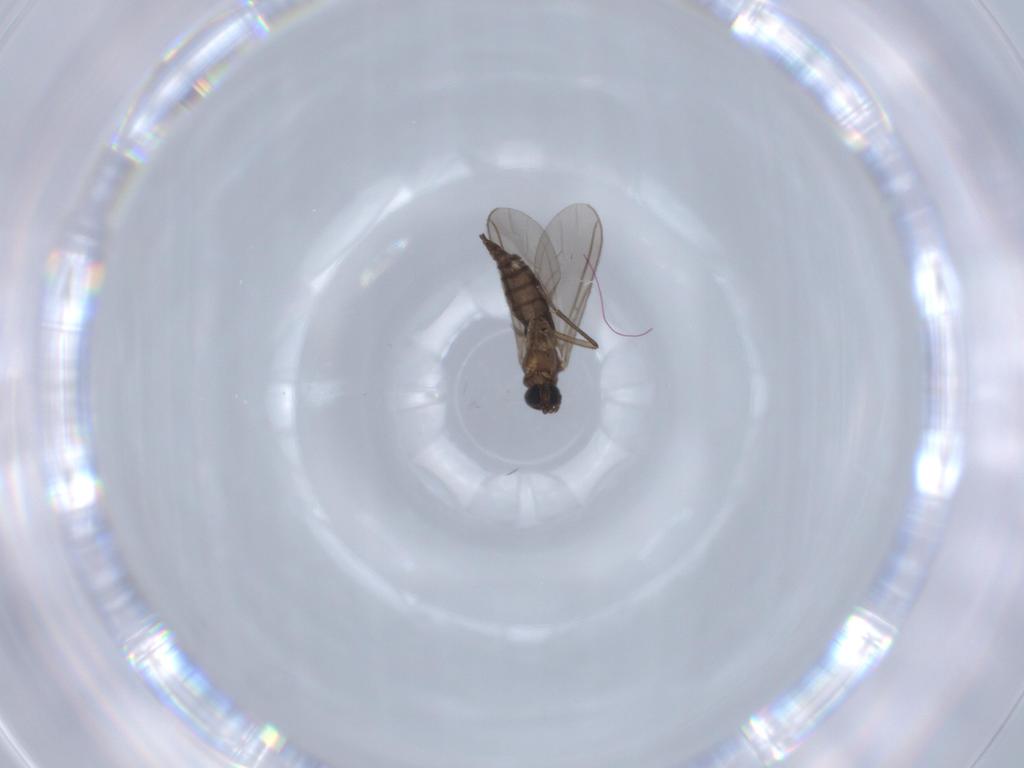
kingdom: Animalia
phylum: Arthropoda
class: Insecta
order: Diptera
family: Cecidomyiidae
